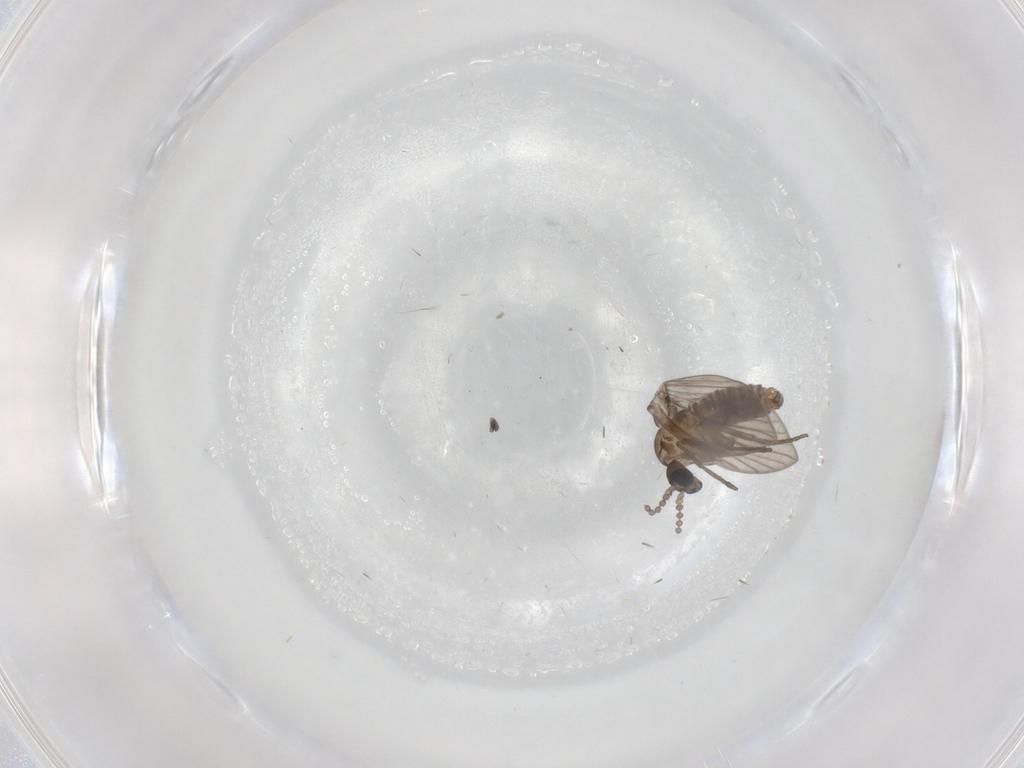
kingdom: Animalia
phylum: Arthropoda
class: Insecta
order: Diptera
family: Psychodidae
